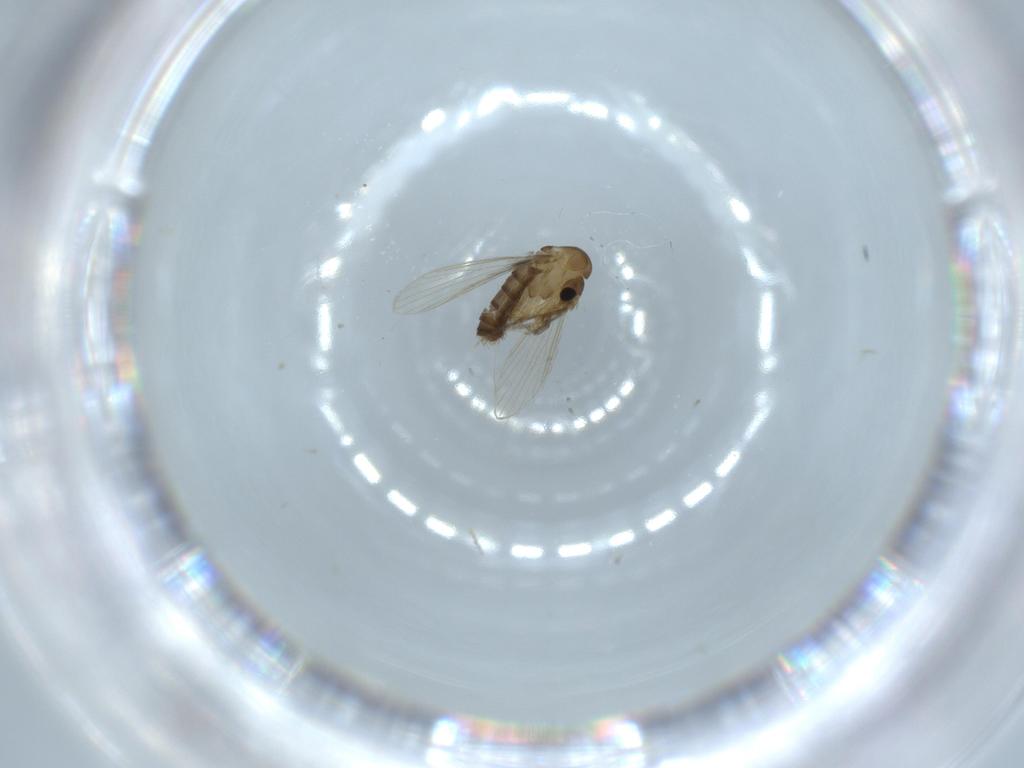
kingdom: Animalia
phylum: Arthropoda
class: Insecta
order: Diptera
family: Psychodidae
